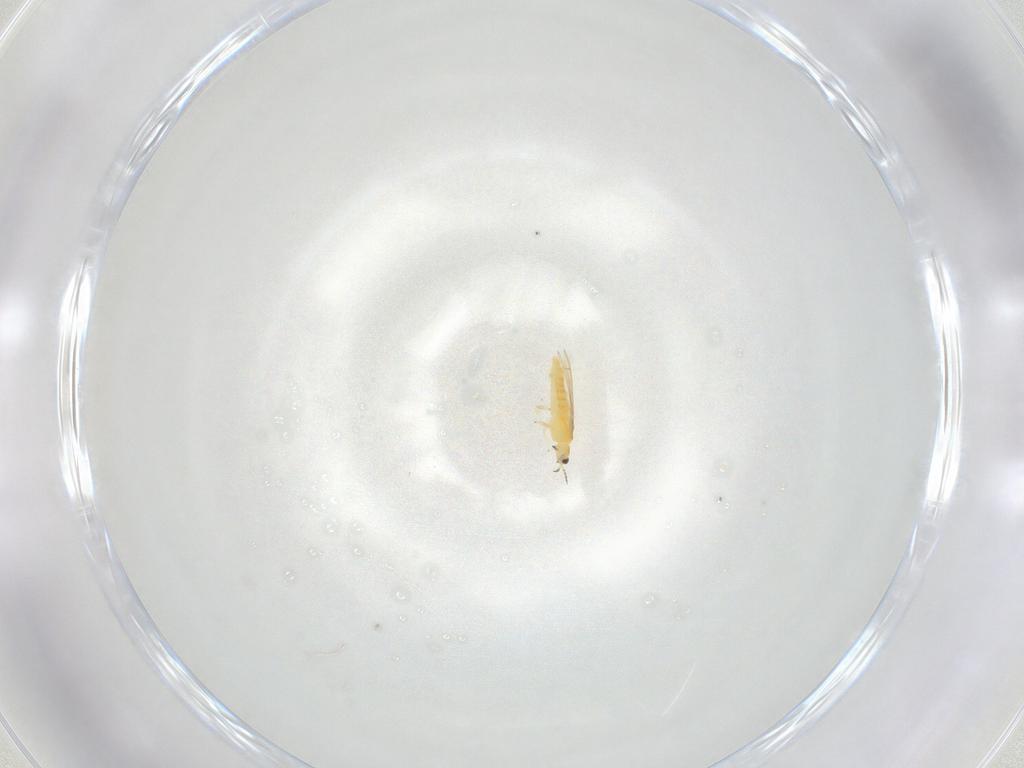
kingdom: Animalia
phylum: Arthropoda
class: Insecta
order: Thysanoptera
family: Thripidae
